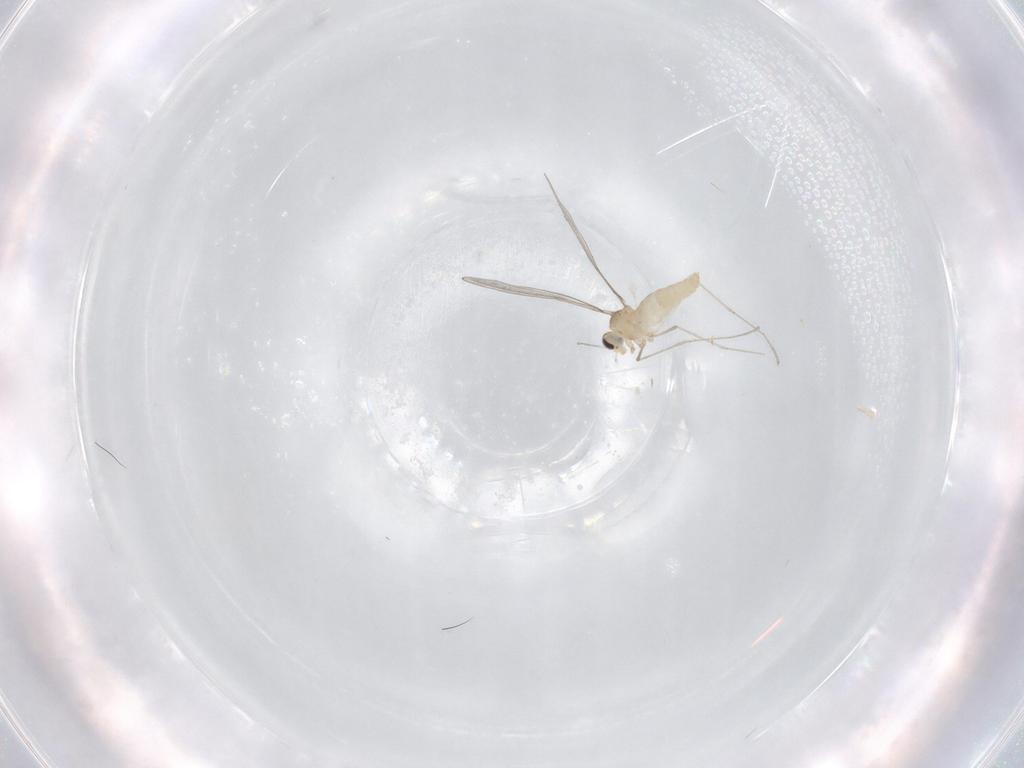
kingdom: Animalia
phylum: Arthropoda
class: Insecta
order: Diptera
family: Cecidomyiidae
